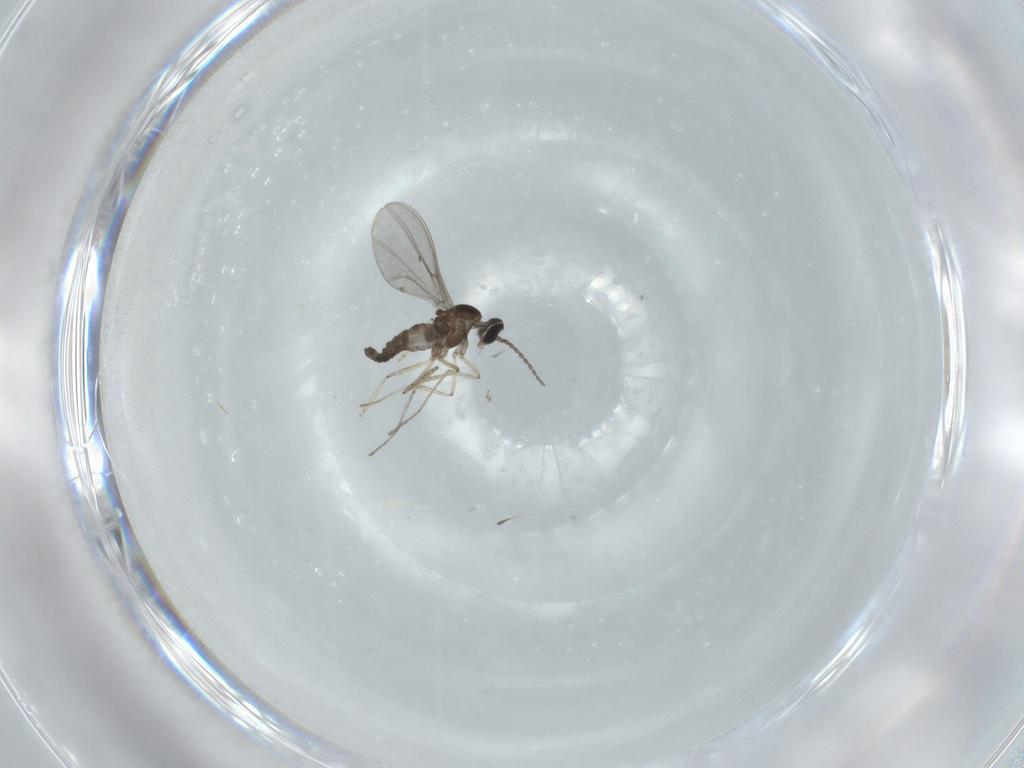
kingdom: Animalia
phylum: Arthropoda
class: Insecta
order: Diptera
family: Cecidomyiidae
